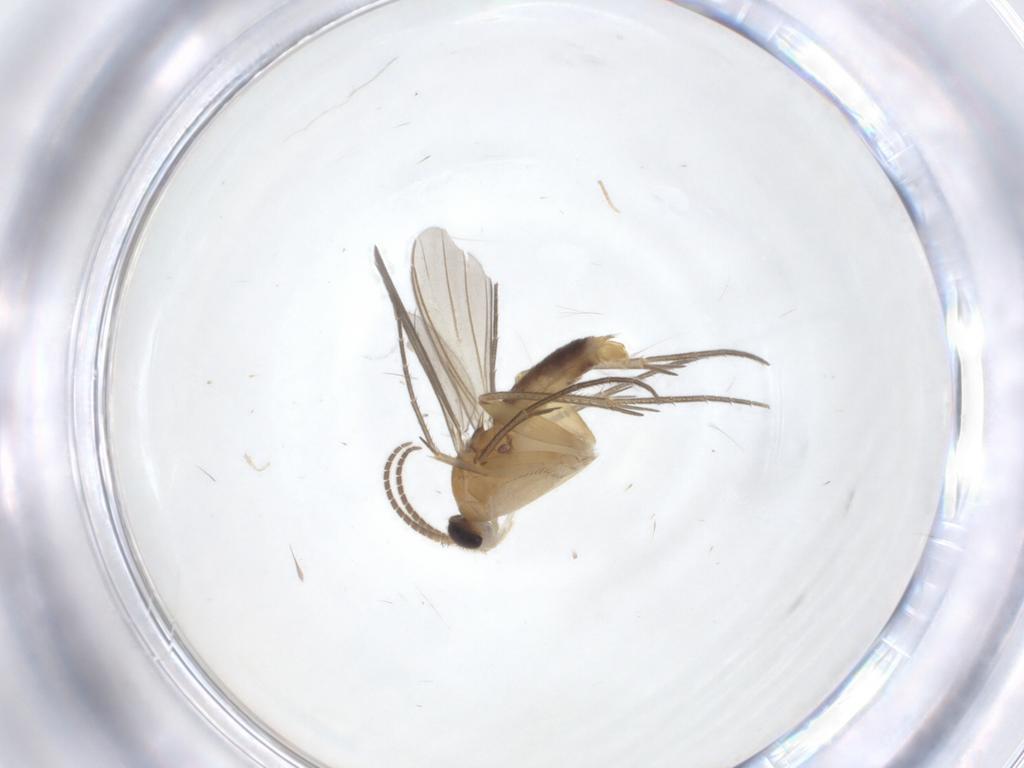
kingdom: Animalia
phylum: Arthropoda
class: Insecta
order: Diptera
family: Mycetophilidae
